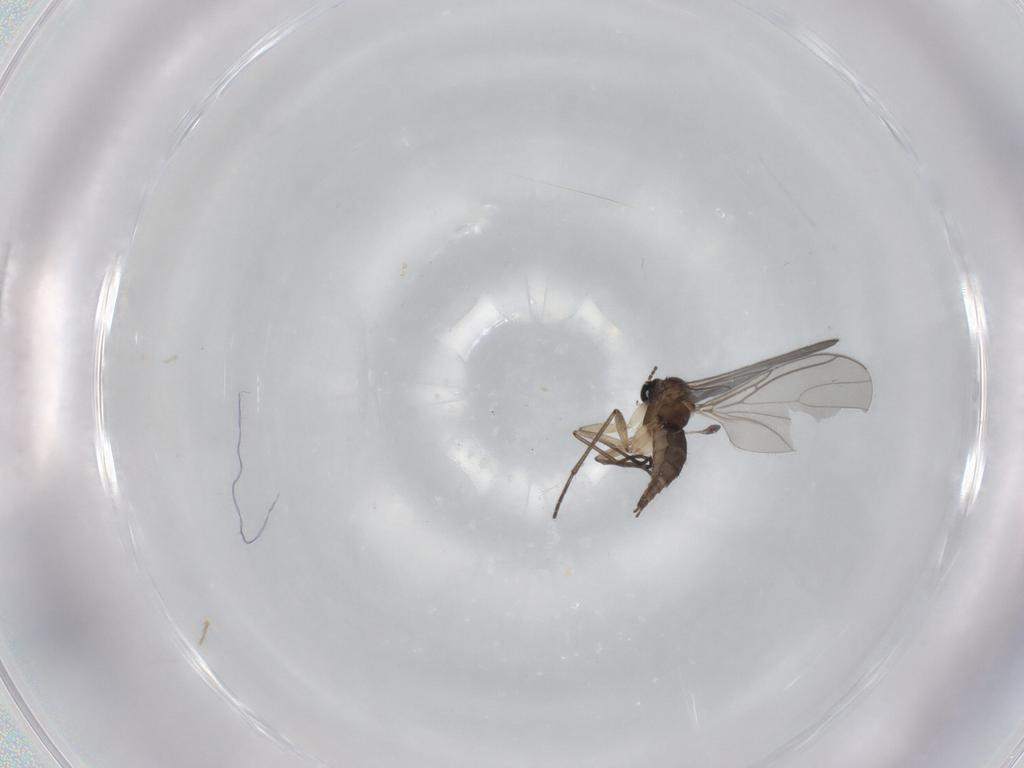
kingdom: Animalia
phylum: Arthropoda
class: Insecta
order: Diptera
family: Sciaridae
